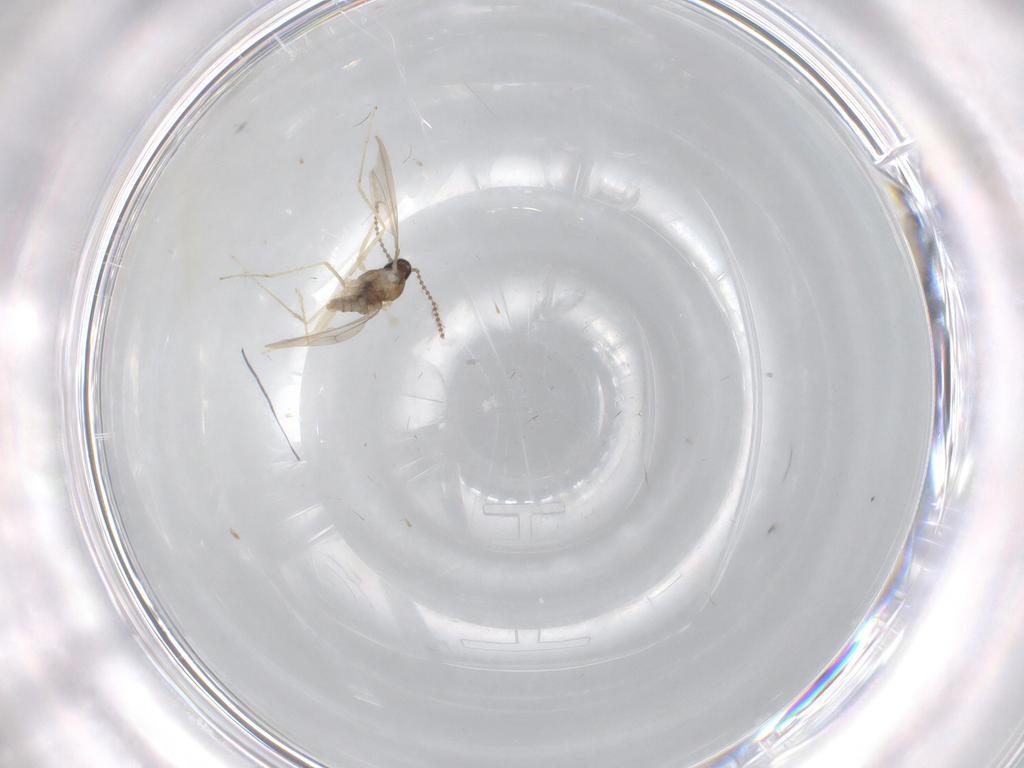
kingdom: Animalia
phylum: Arthropoda
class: Insecta
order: Diptera
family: Cecidomyiidae
